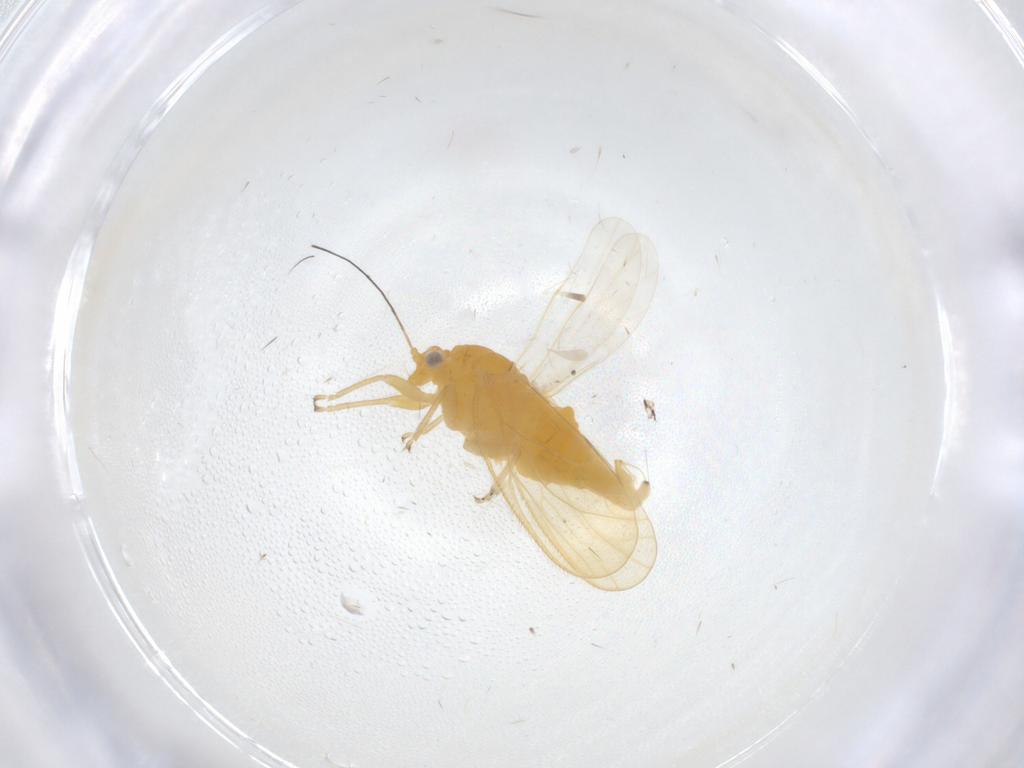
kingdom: Animalia
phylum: Arthropoda
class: Insecta
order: Hemiptera
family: Psyllidae
